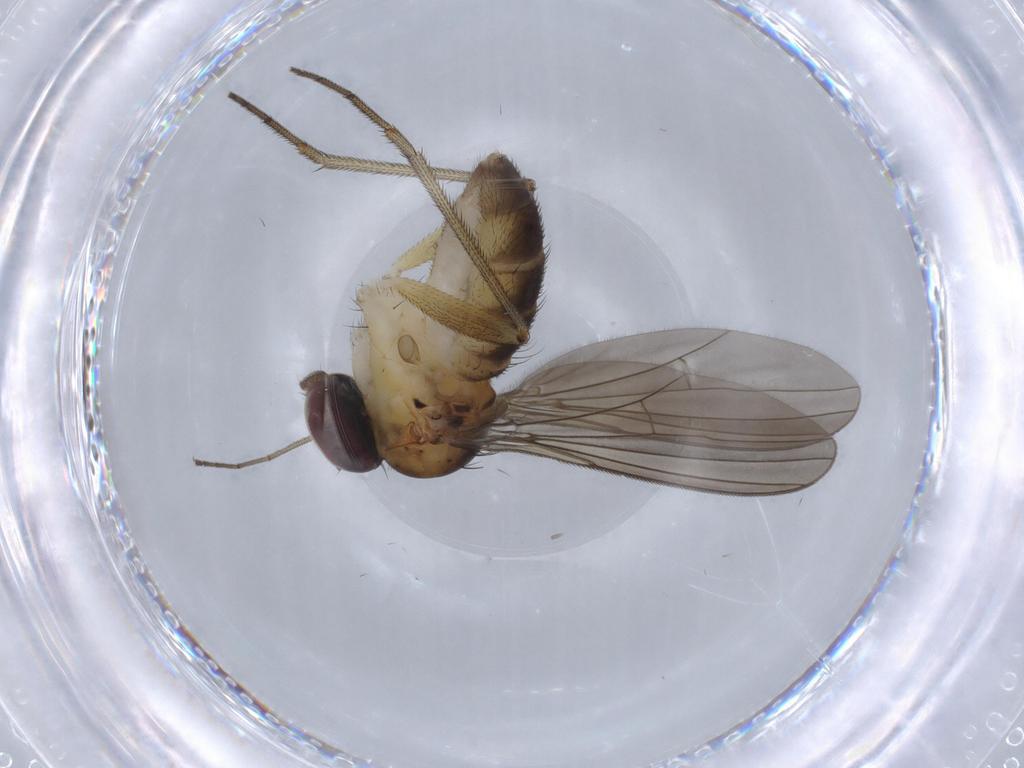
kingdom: Animalia
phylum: Arthropoda
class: Insecta
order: Diptera
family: Dolichopodidae
